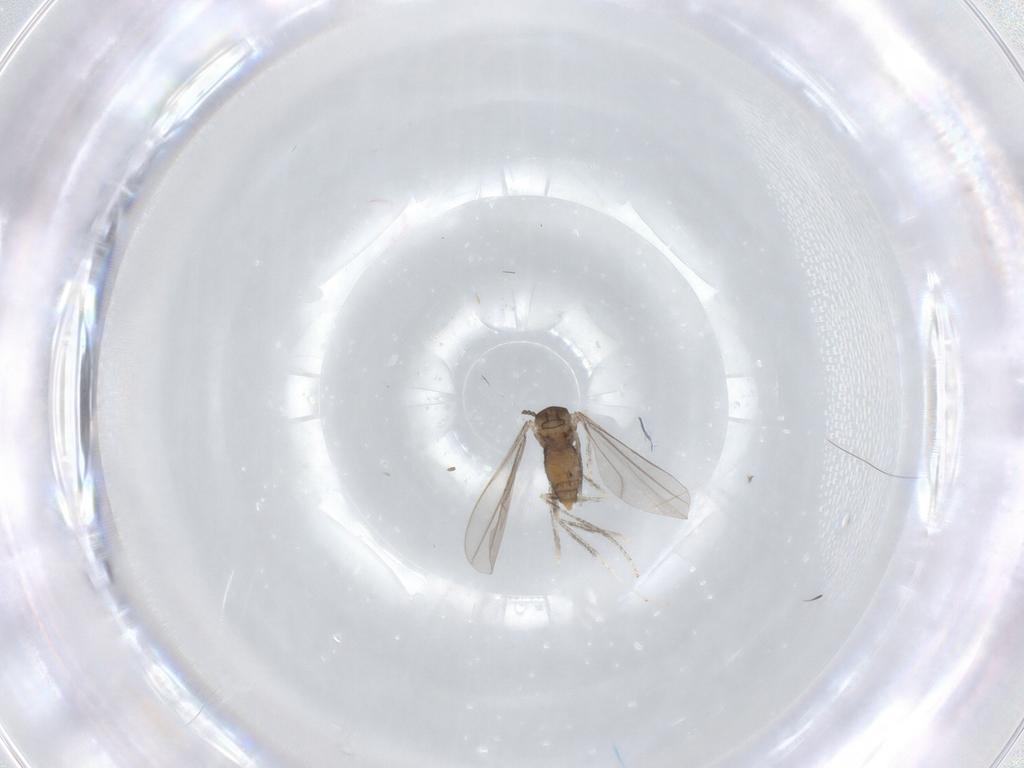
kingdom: Animalia
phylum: Arthropoda
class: Insecta
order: Diptera
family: Cecidomyiidae
